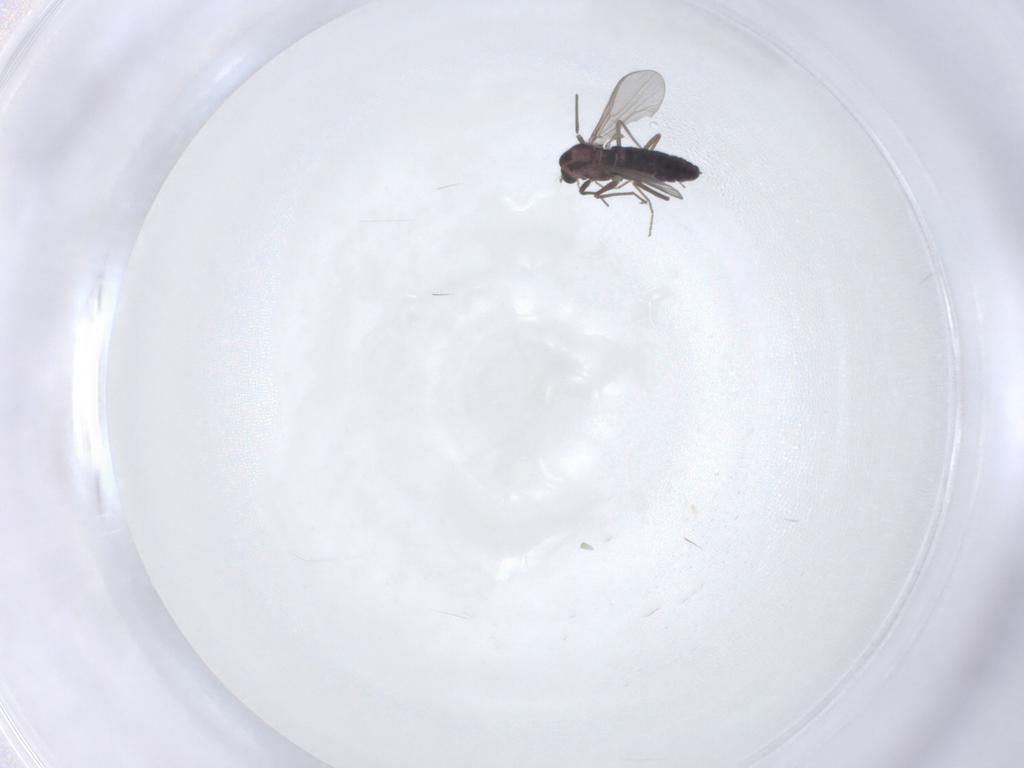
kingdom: Animalia
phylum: Arthropoda
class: Insecta
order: Diptera
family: Chironomidae
